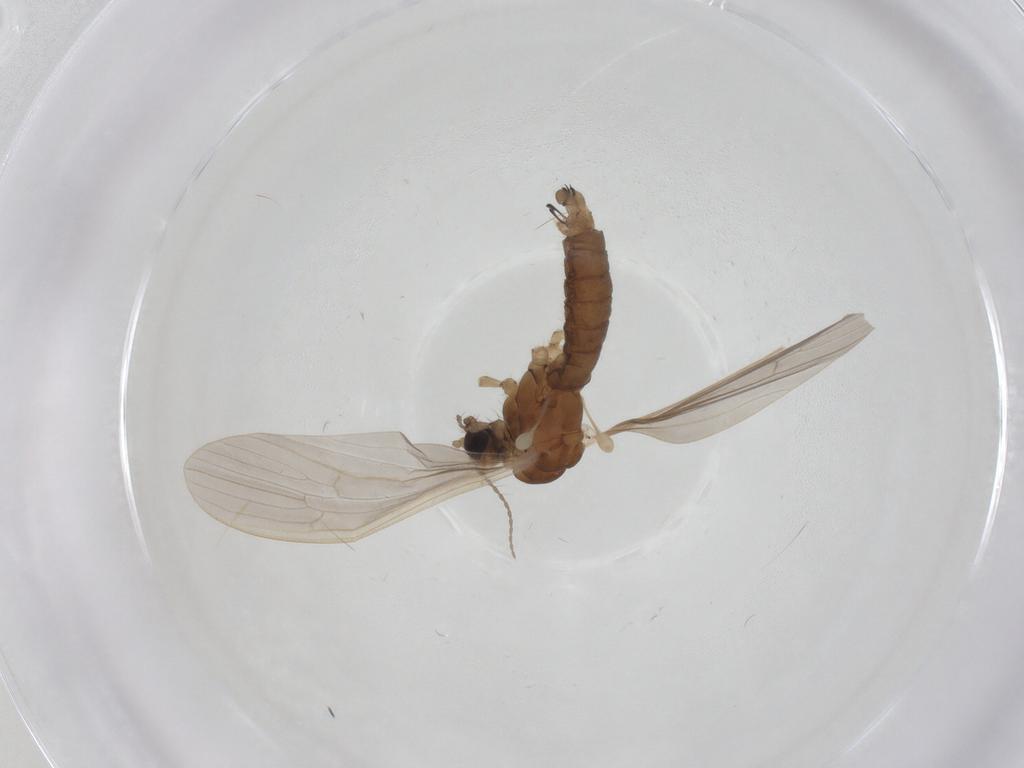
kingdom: Animalia
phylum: Arthropoda
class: Insecta
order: Diptera
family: Limoniidae
